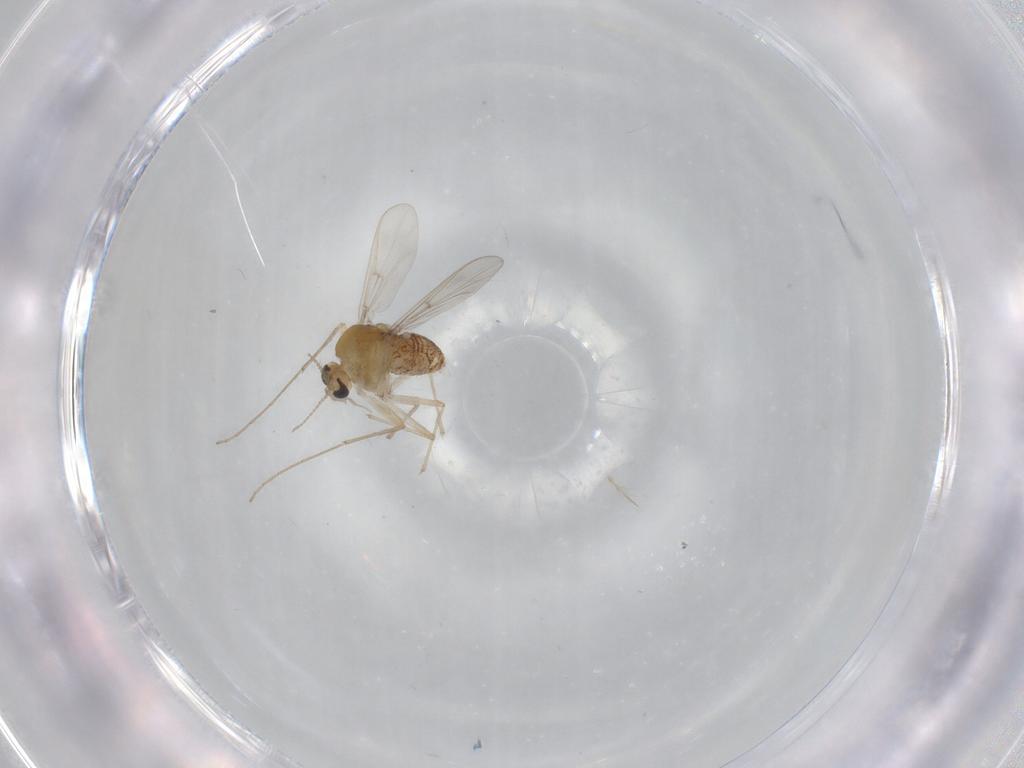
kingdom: Animalia
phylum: Arthropoda
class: Insecta
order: Diptera
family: Chironomidae
